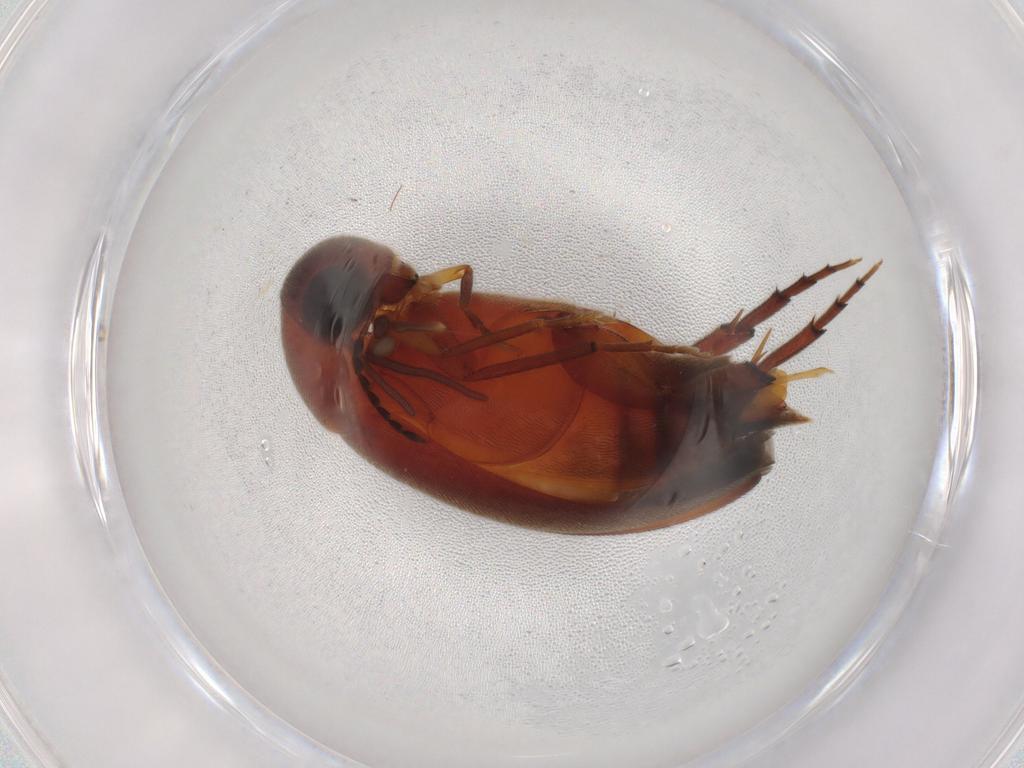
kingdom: Animalia
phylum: Arthropoda
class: Insecta
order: Coleoptera
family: Mordellidae
